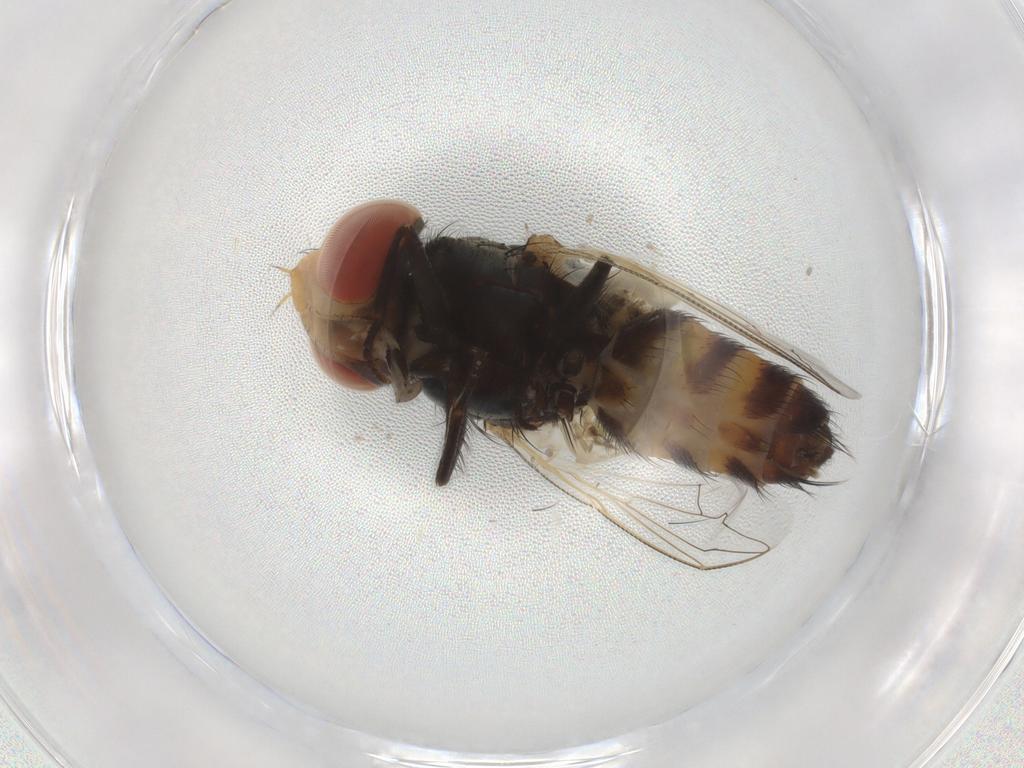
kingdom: Animalia
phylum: Arthropoda
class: Insecta
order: Diptera
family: Sarcophagidae
